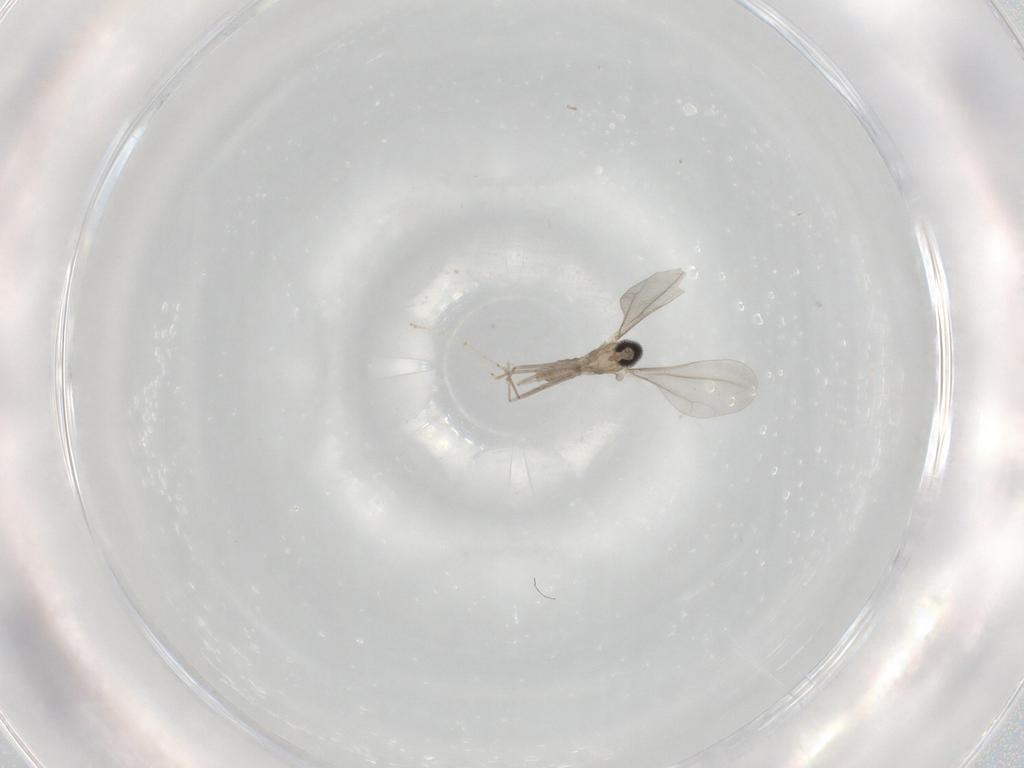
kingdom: Animalia
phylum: Arthropoda
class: Insecta
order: Diptera
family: Cecidomyiidae
